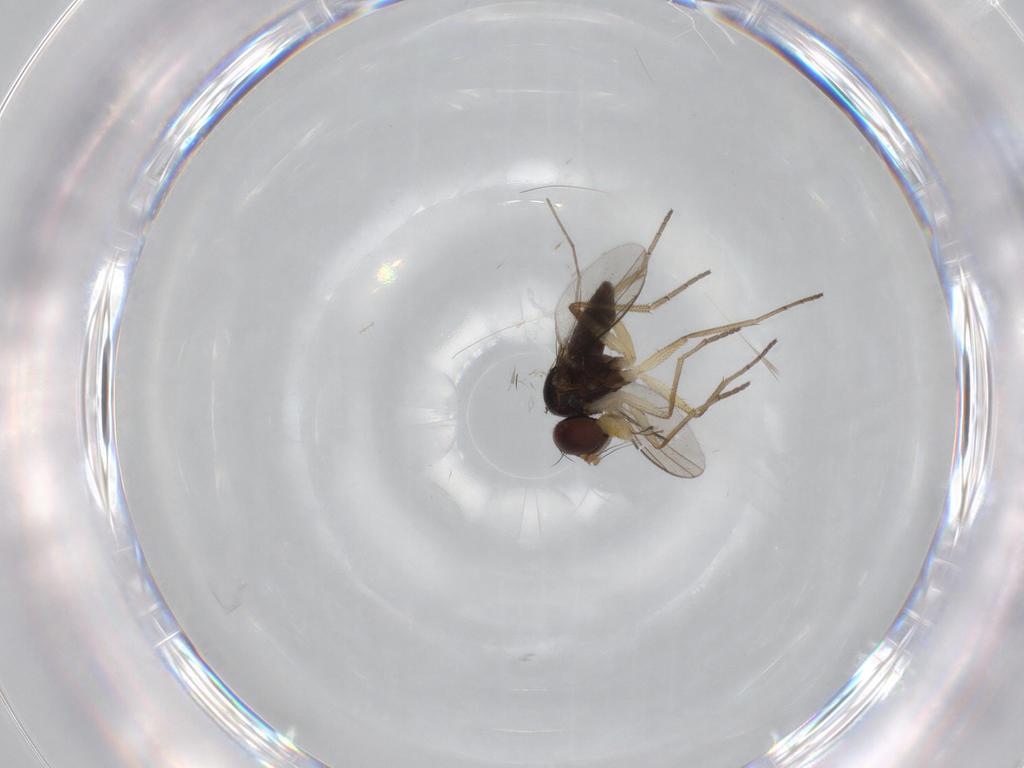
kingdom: Animalia
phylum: Arthropoda
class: Insecta
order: Diptera
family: Dolichopodidae
